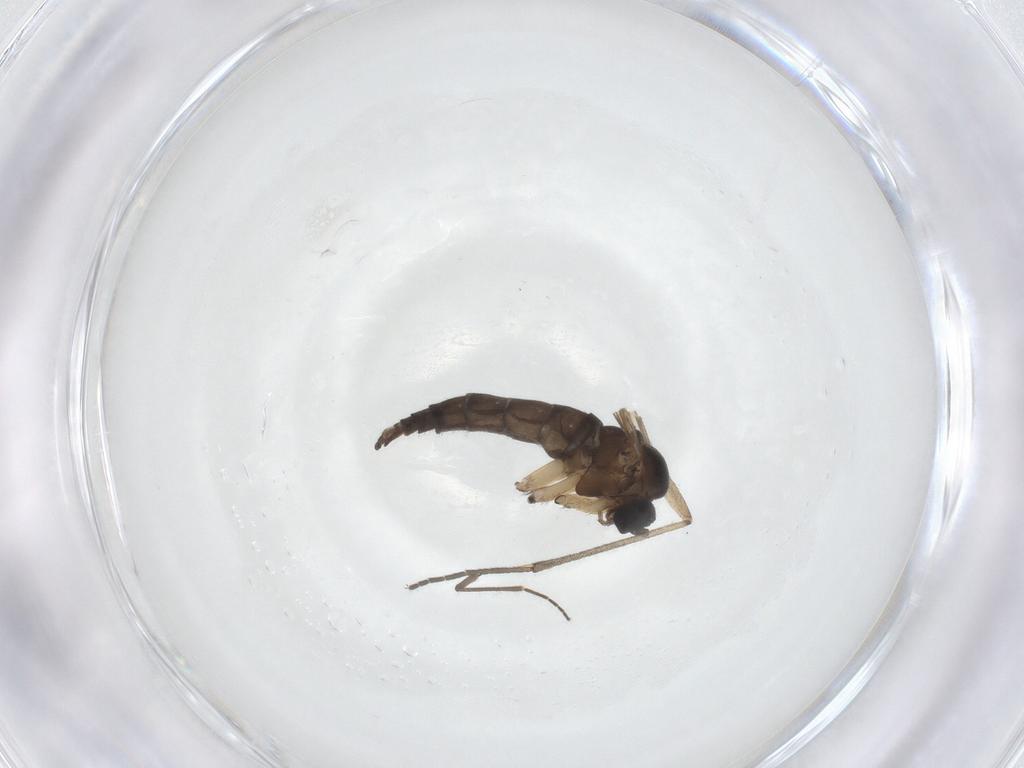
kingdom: Animalia
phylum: Arthropoda
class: Insecta
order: Diptera
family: Sciaridae
